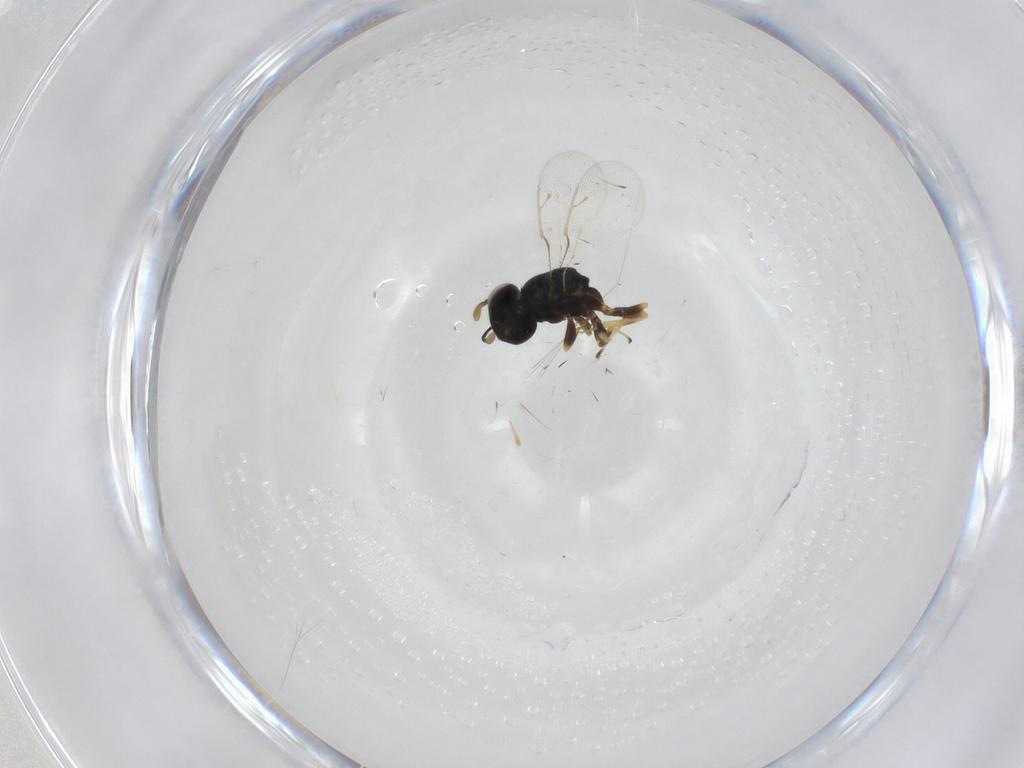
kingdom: Animalia
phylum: Arthropoda
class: Insecta
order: Hymenoptera
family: Pteromalidae
